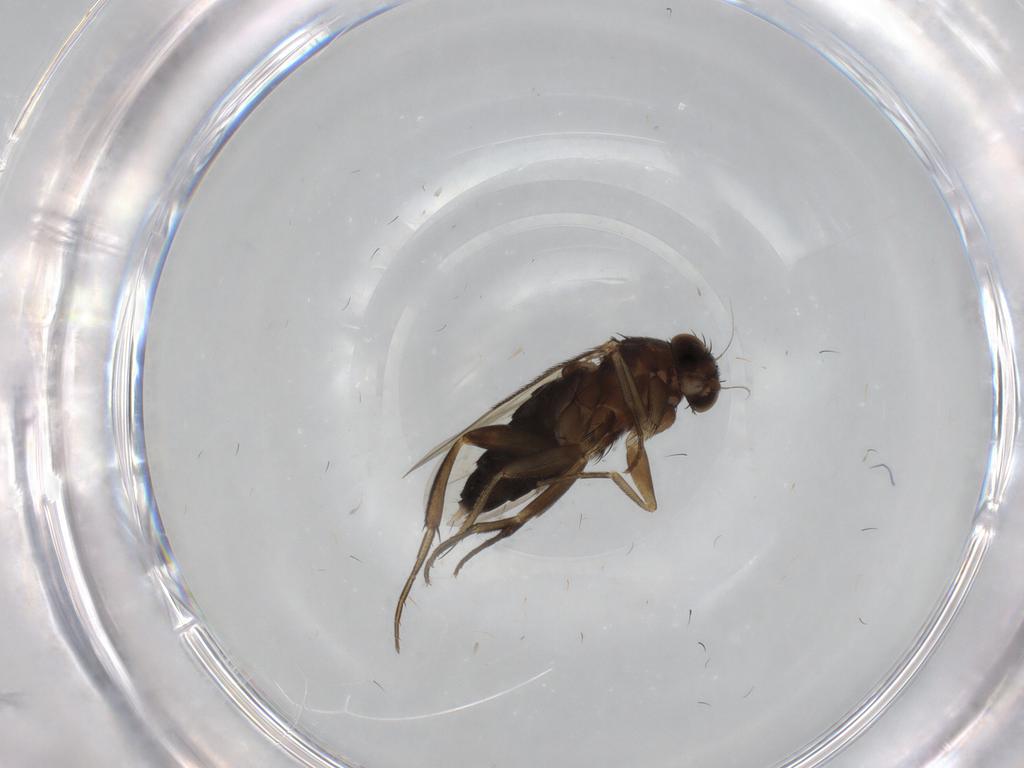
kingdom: Animalia
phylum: Arthropoda
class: Insecta
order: Diptera
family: Tabanidae
